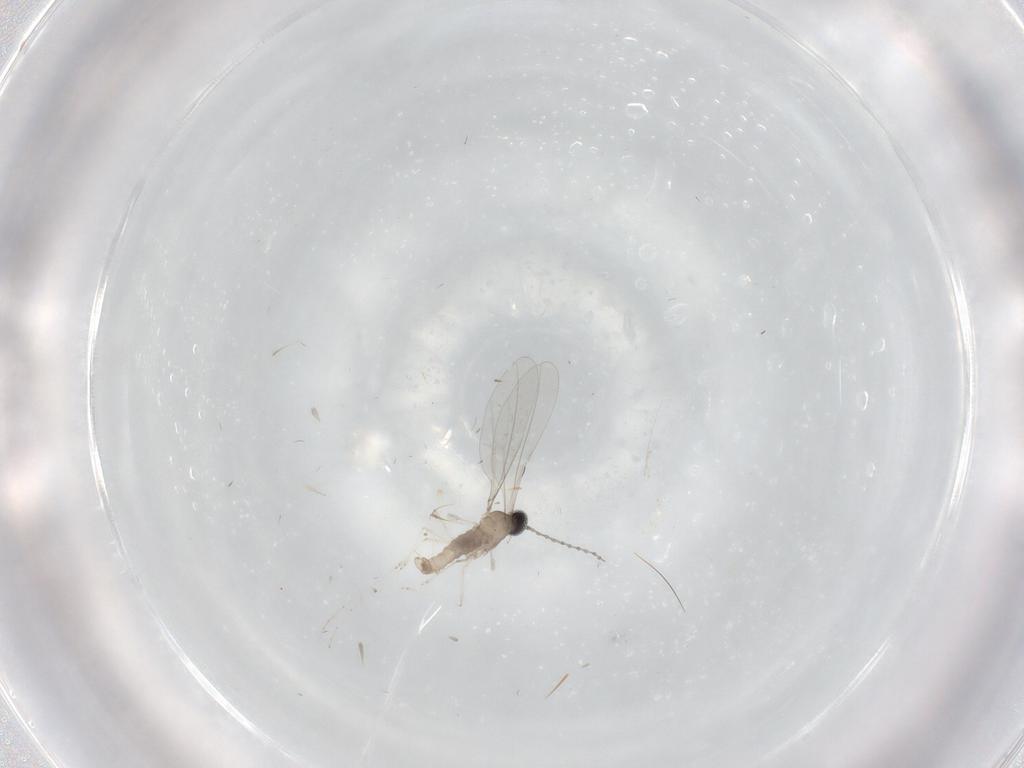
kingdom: Animalia
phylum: Arthropoda
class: Insecta
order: Diptera
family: Cecidomyiidae
